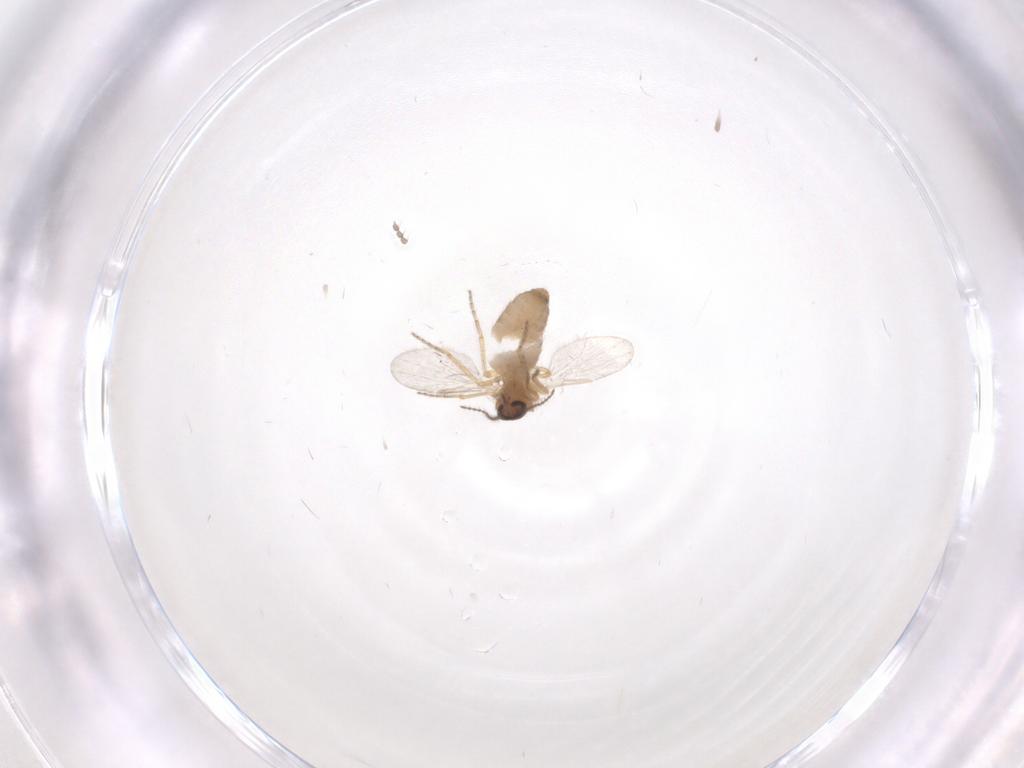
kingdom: Animalia
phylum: Arthropoda
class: Insecta
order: Diptera
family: Ceratopogonidae
